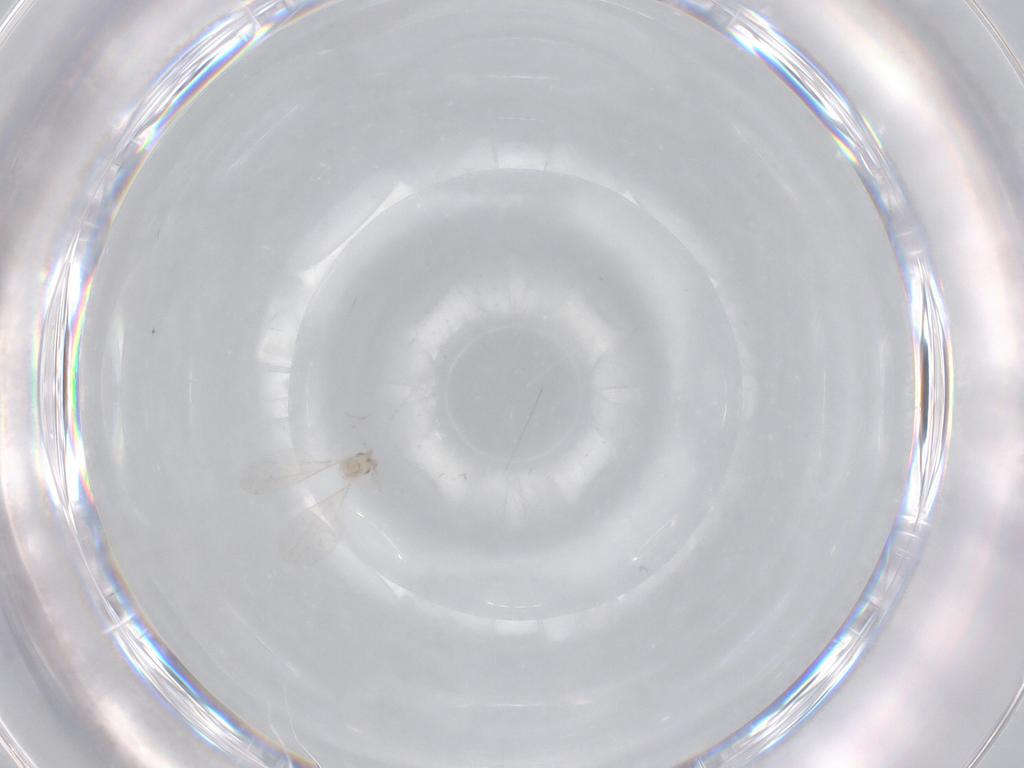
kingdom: Animalia
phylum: Arthropoda
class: Insecta
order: Diptera
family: Cecidomyiidae
